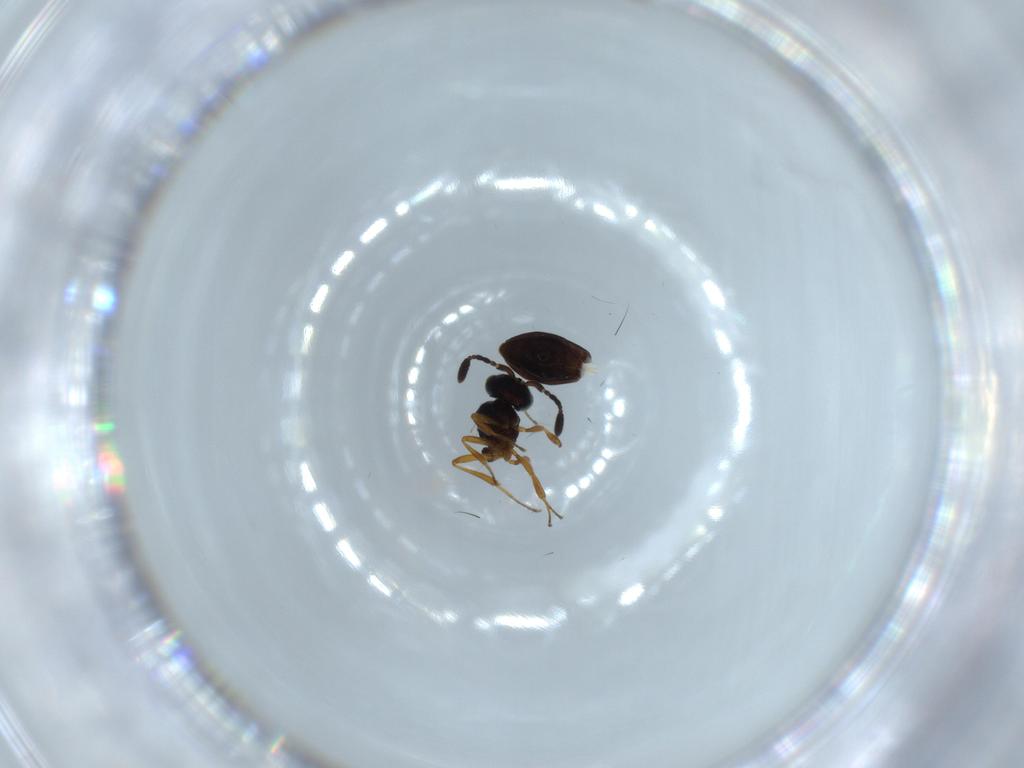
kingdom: Animalia
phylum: Arthropoda
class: Insecta
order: Hymenoptera
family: Scelionidae
